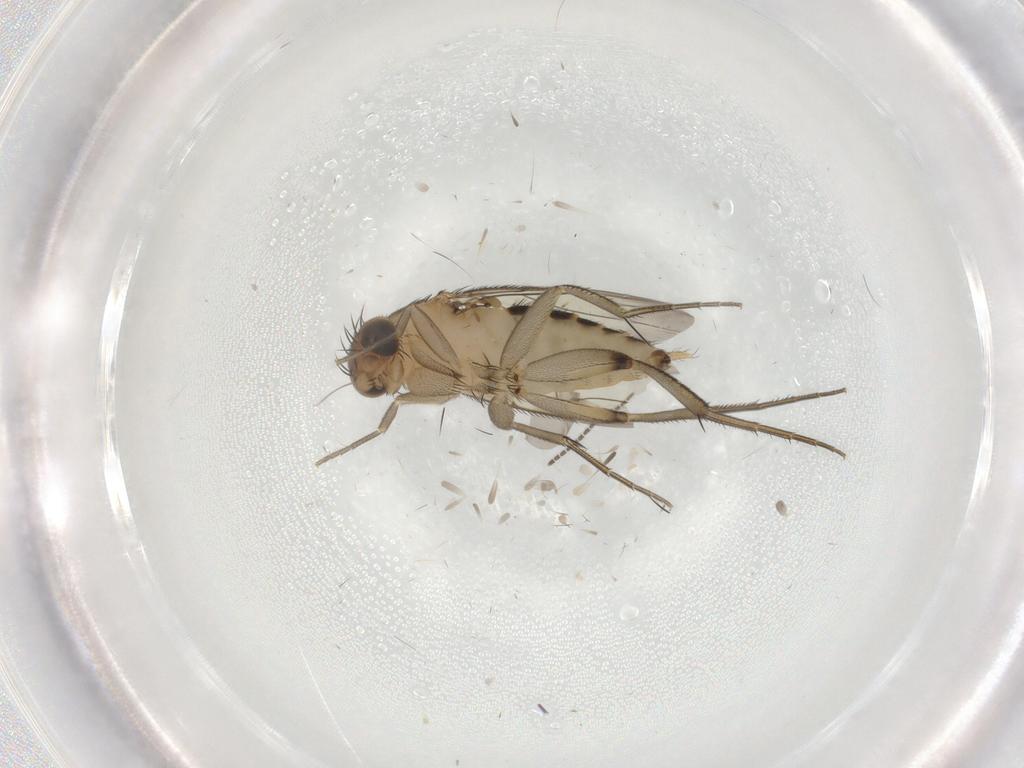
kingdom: Animalia
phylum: Arthropoda
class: Insecta
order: Diptera
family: Phoridae
